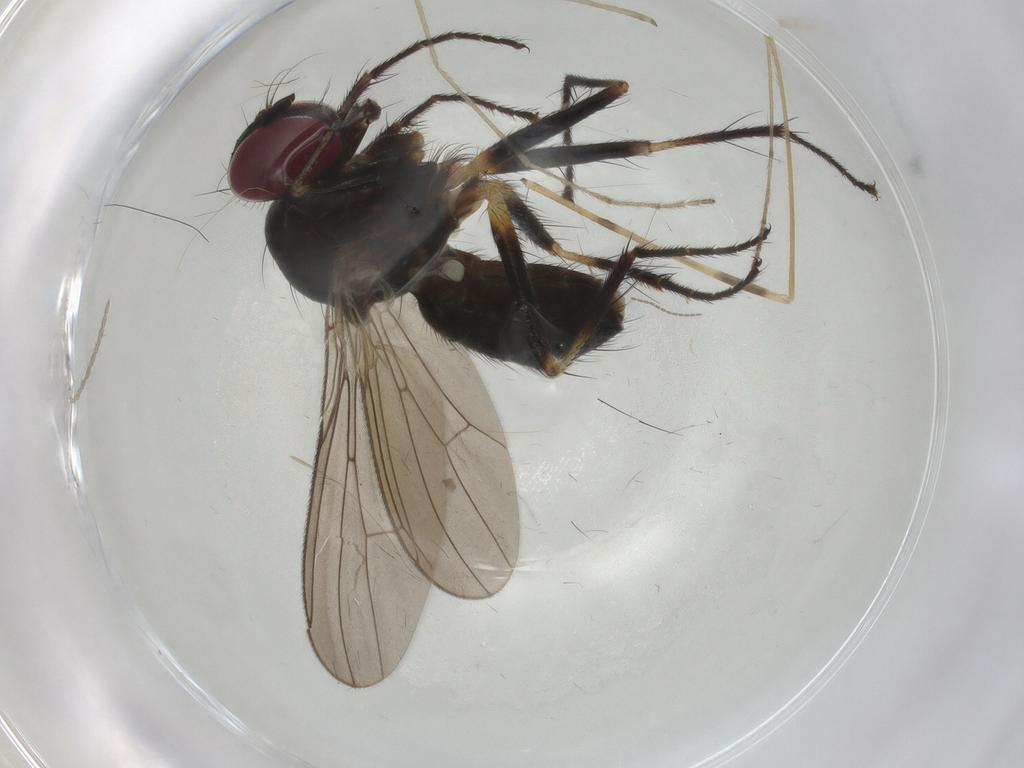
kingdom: Animalia
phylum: Arthropoda
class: Insecta
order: Diptera
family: Anthomyiidae
